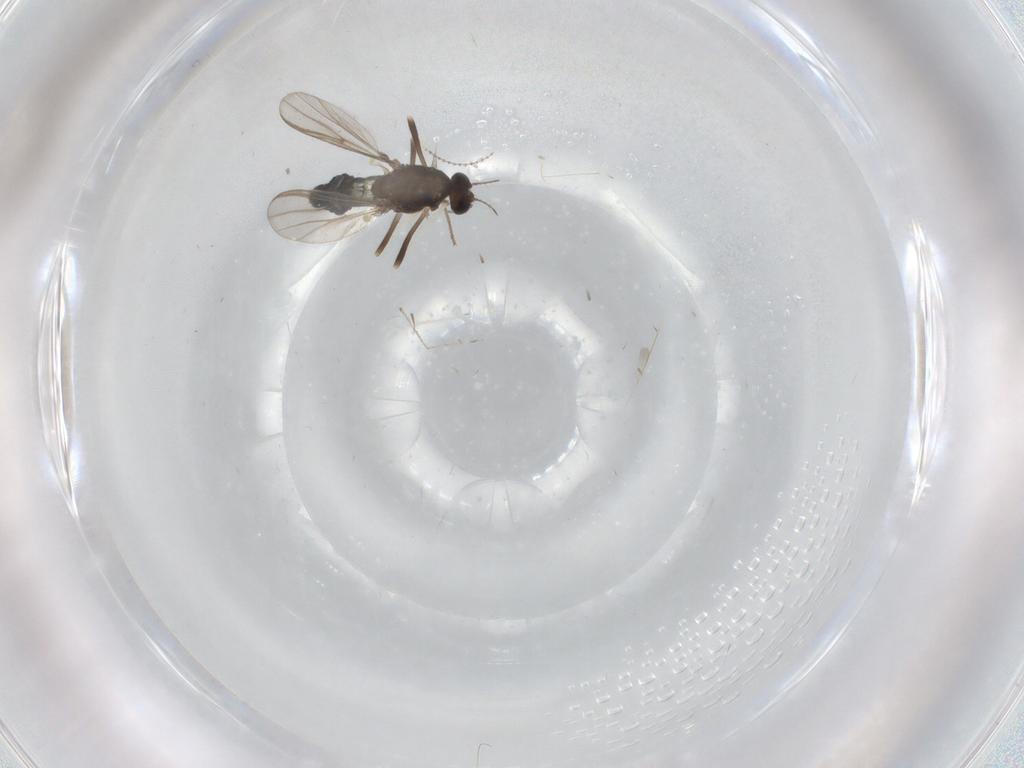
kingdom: Animalia
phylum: Arthropoda
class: Insecta
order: Diptera
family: Chironomidae
